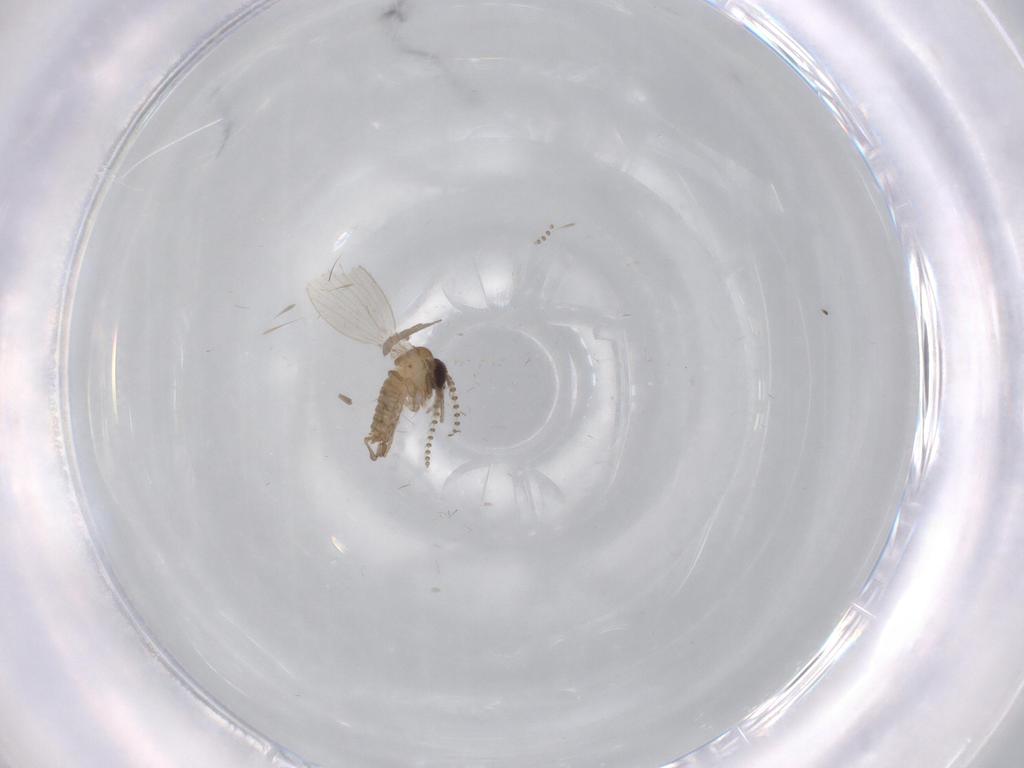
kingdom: Animalia
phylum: Arthropoda
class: Insecta
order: Diptera
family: Psychodidae
